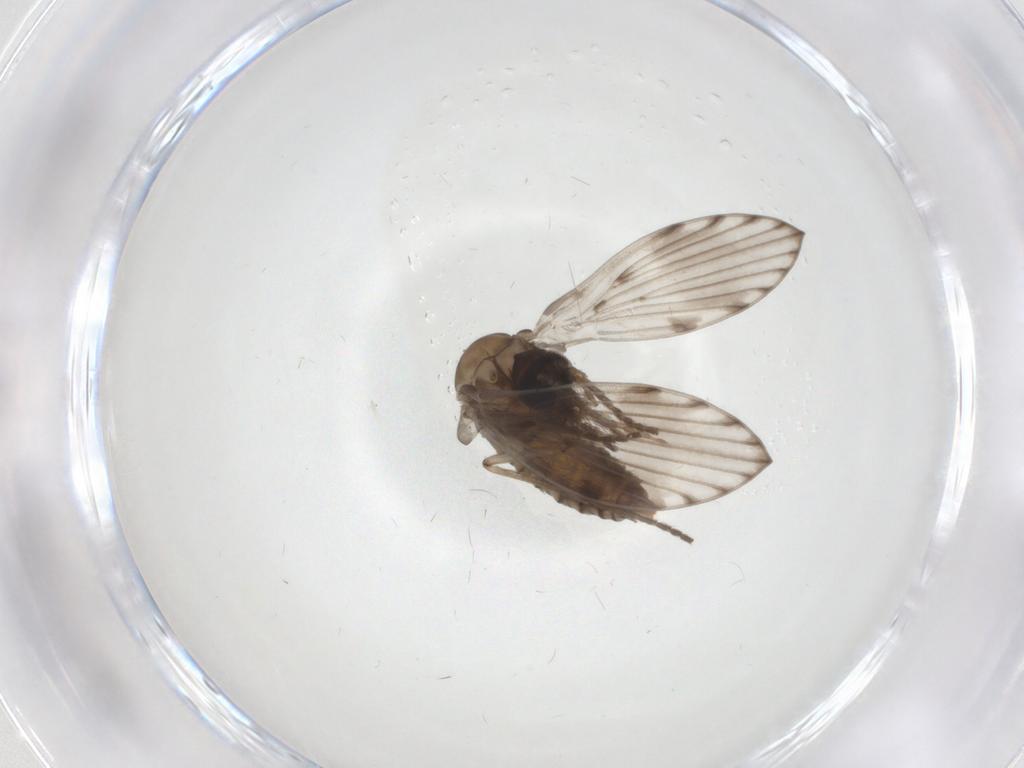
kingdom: Animalia
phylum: Arthropoda
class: Insecta
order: Diptera
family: Psychodidae
